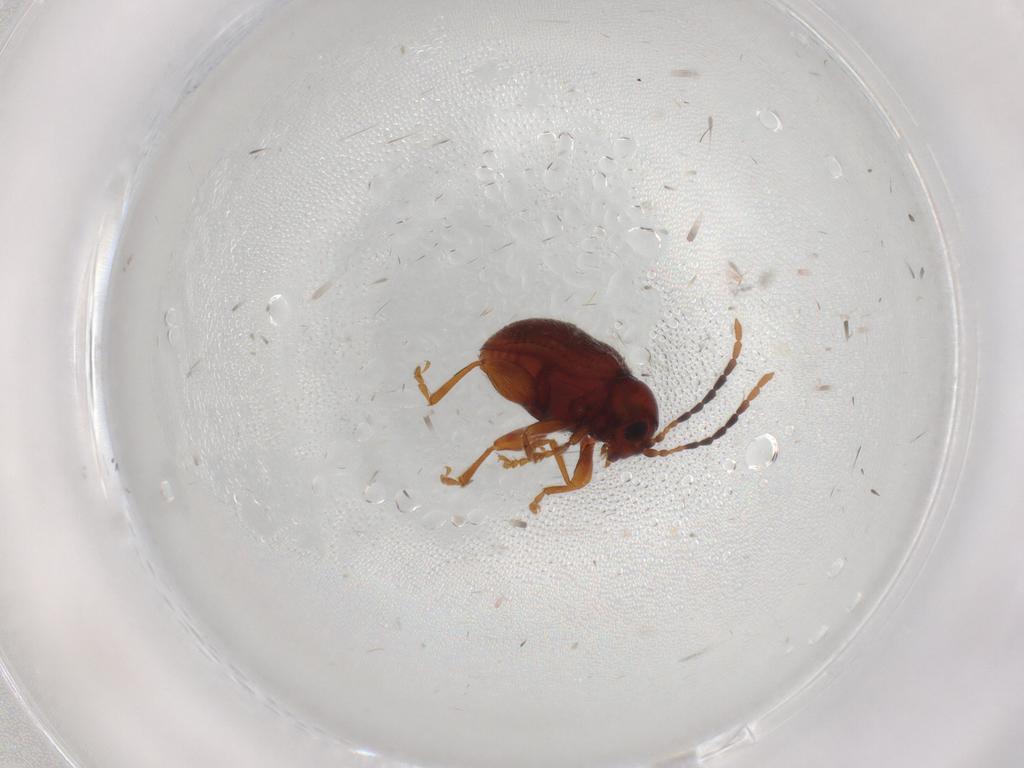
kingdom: Animalia
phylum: Arthropoda
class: Insecta
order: Coleoptera
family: Chrysomelidae
